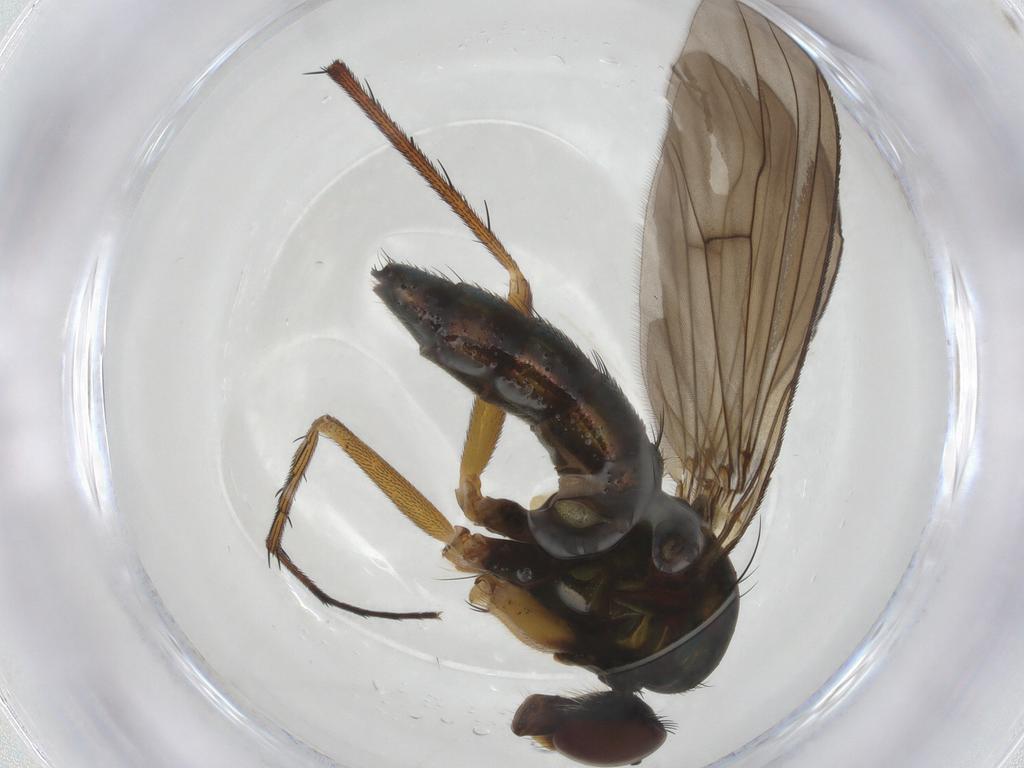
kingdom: Animalia
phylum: Arthropoda
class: Insecta
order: Diptera
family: Dolichopodidae
